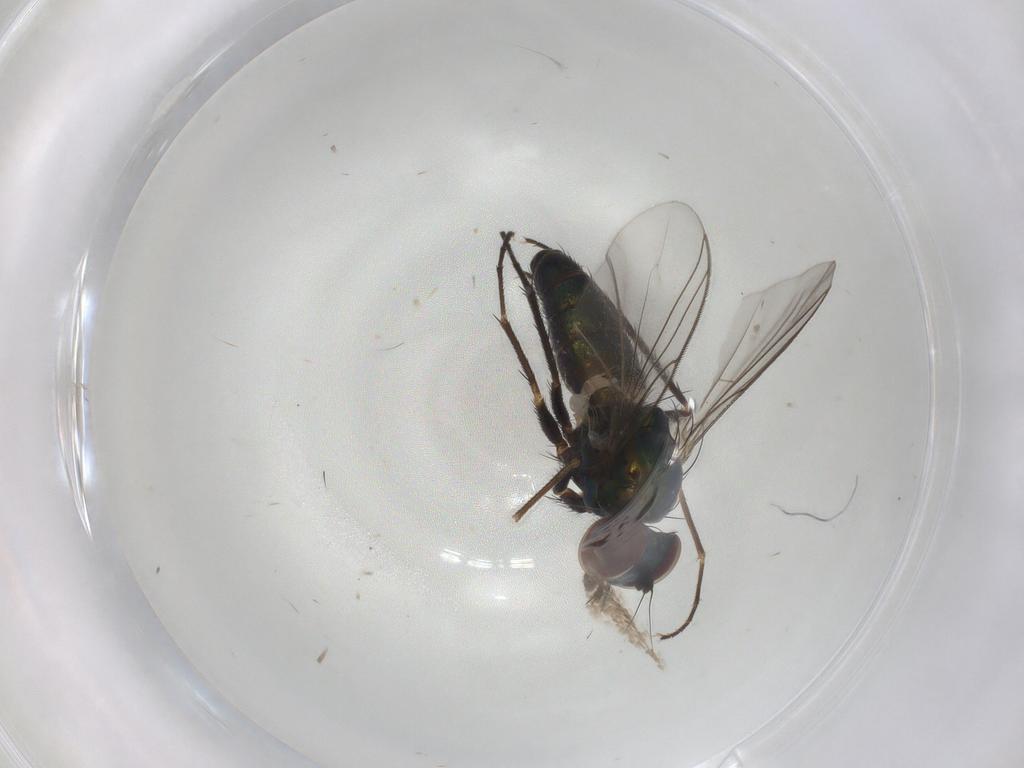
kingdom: Animalia
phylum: Arthropoda
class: Insecta
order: Diptera
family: Dolichopodidae
